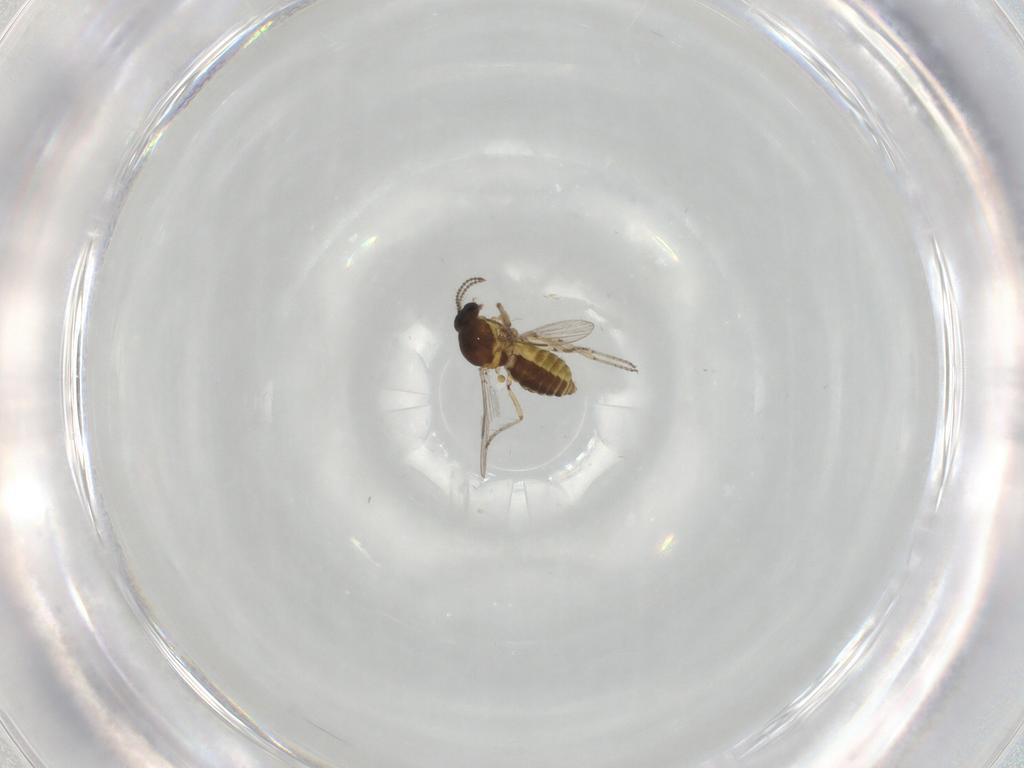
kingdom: Animalia
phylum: Arthropoda
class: Insecta
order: Diptera
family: Ceratopogonidae
